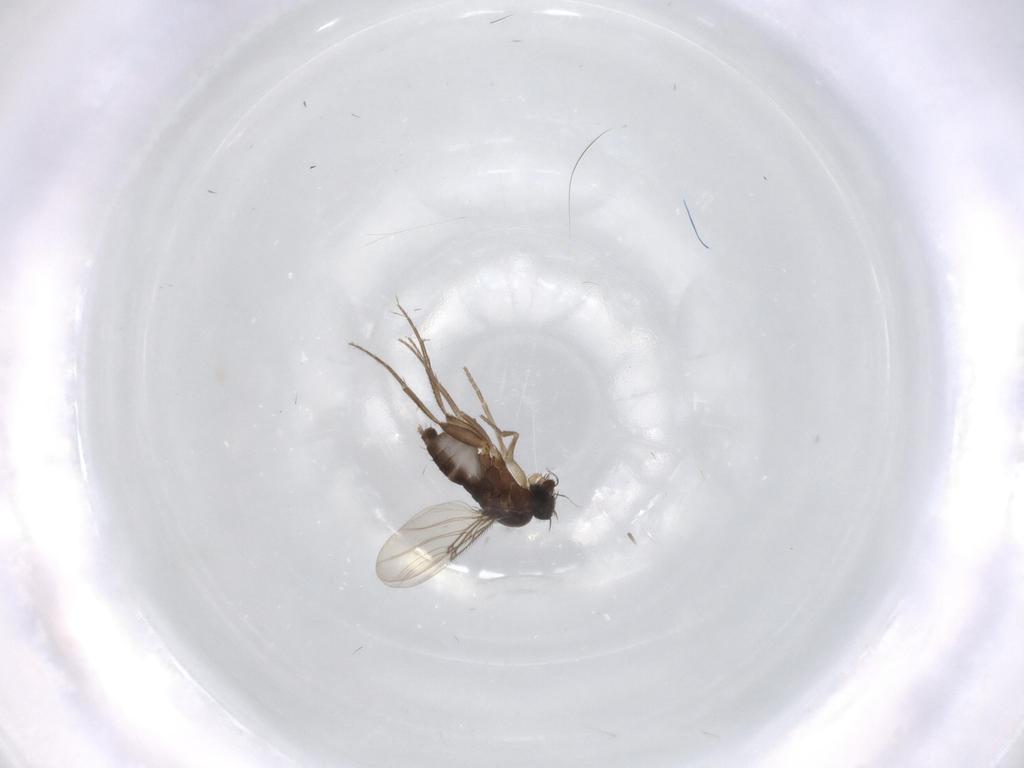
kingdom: Animalia
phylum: Arthropoda
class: Insecta
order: Diptera
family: Phoridae
